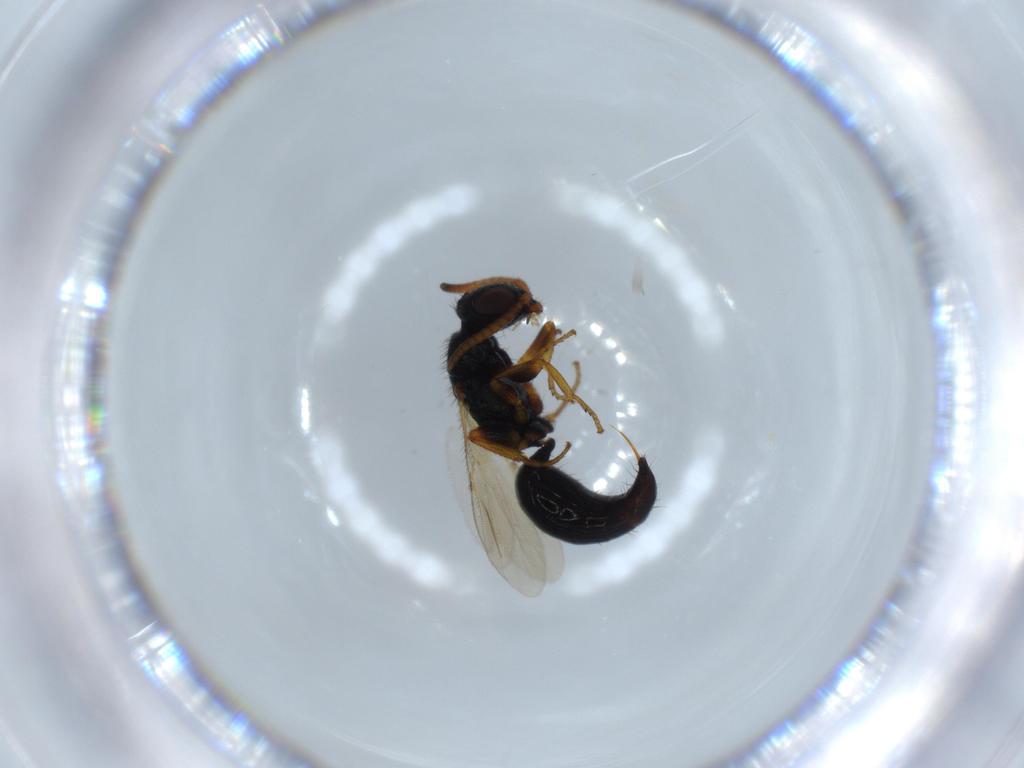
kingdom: Animalia
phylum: Arthropoda
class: Insecta
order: Hymenoptera
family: Bethylidae
